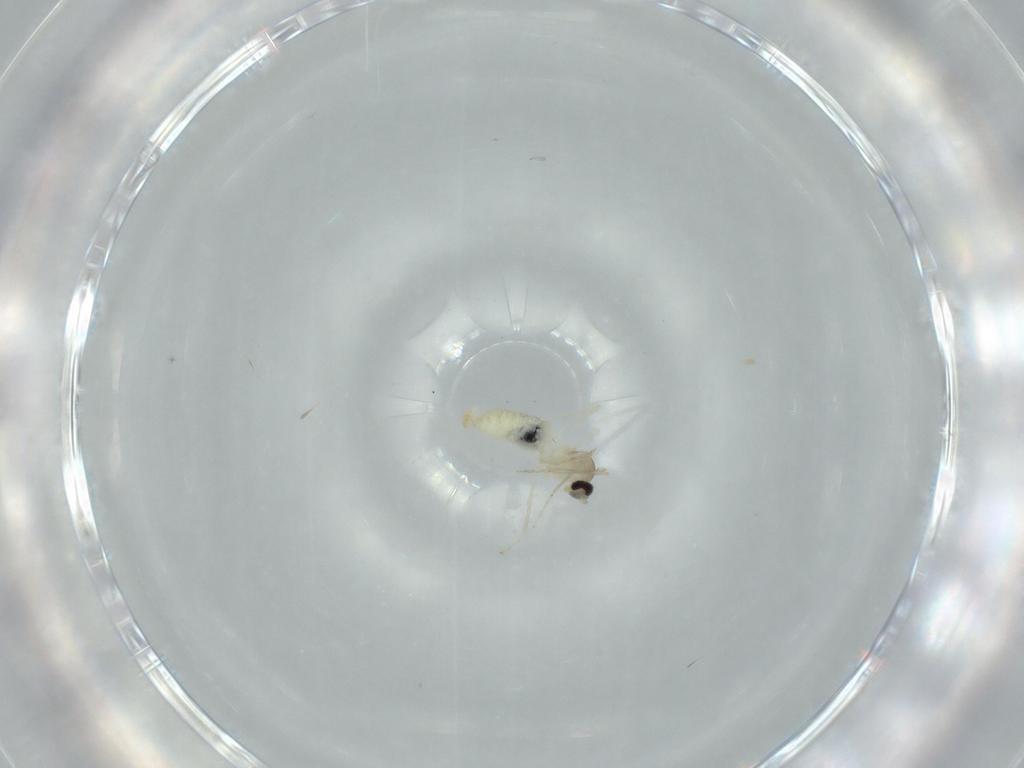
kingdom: Animalia
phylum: Arthropoda
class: Insecta
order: Diptera
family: Cecidomyiidae
